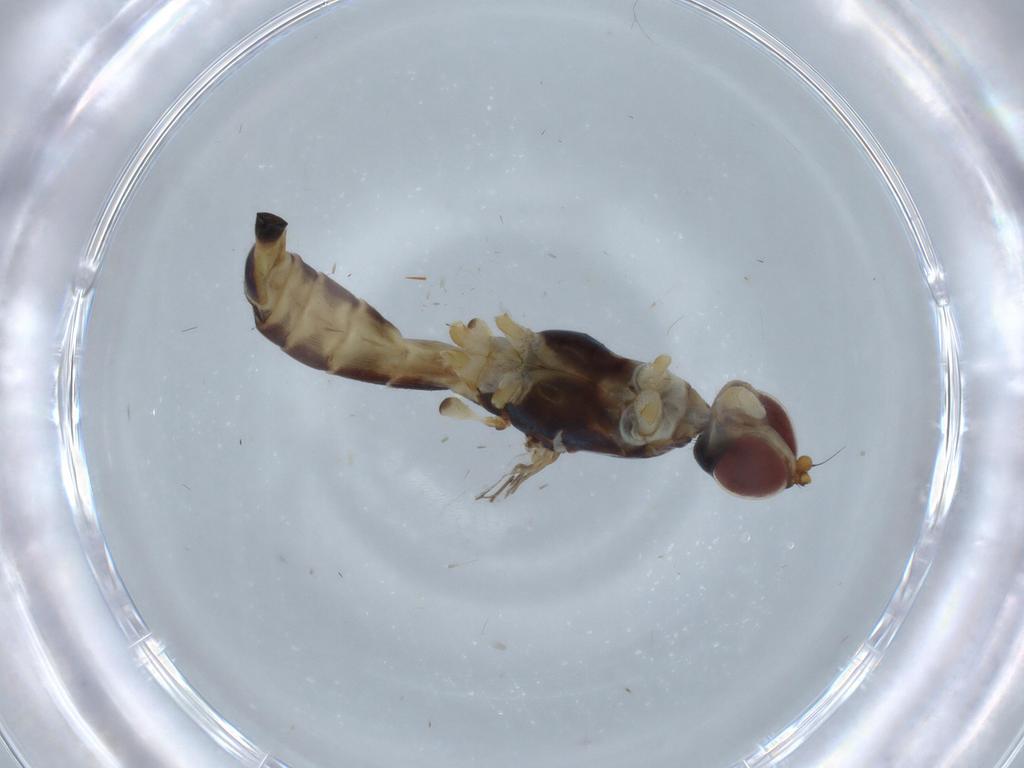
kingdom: Animalia
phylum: Arthropoda
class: Insecta
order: Diptera
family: Micropezidae
